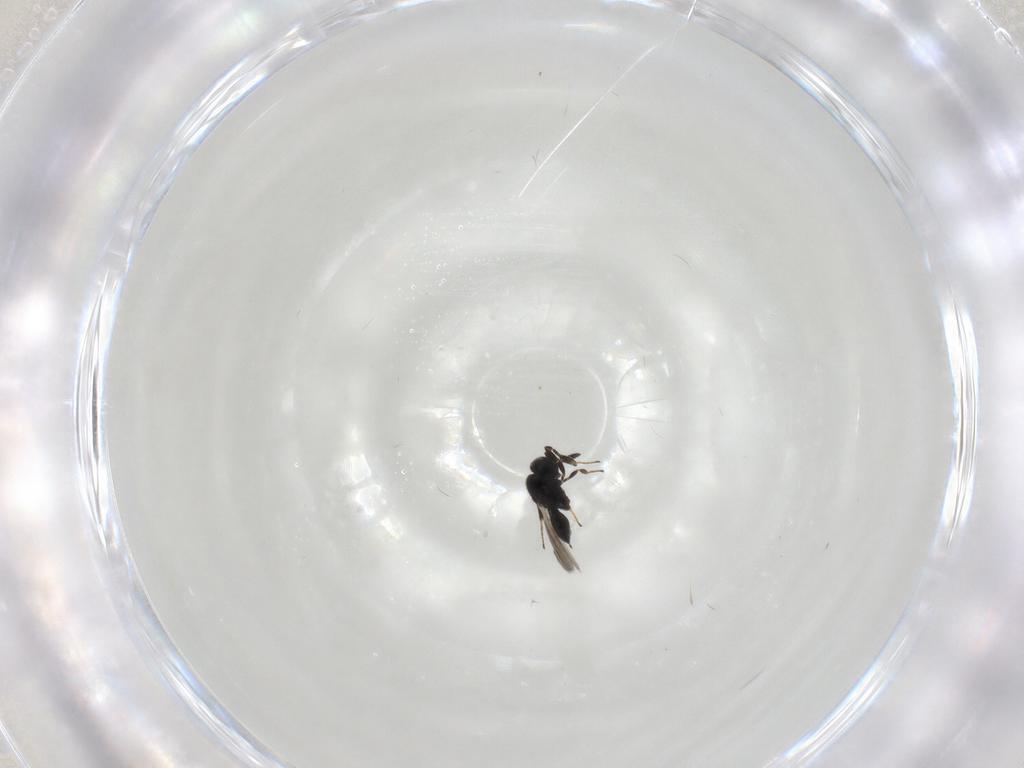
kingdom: Animalia
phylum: Arthropoda
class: Insecta
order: Hymenoptera
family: Scelionidae
